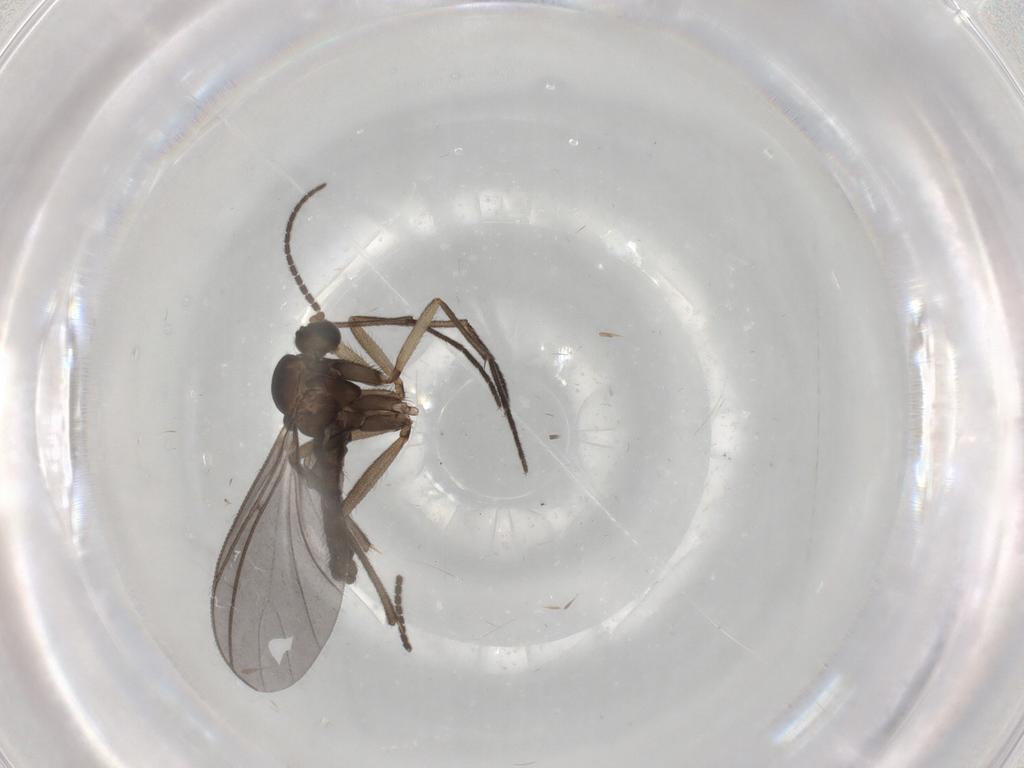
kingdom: Animalia
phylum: Arthropoda
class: Insecta
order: Diptera
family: Sciaridae
